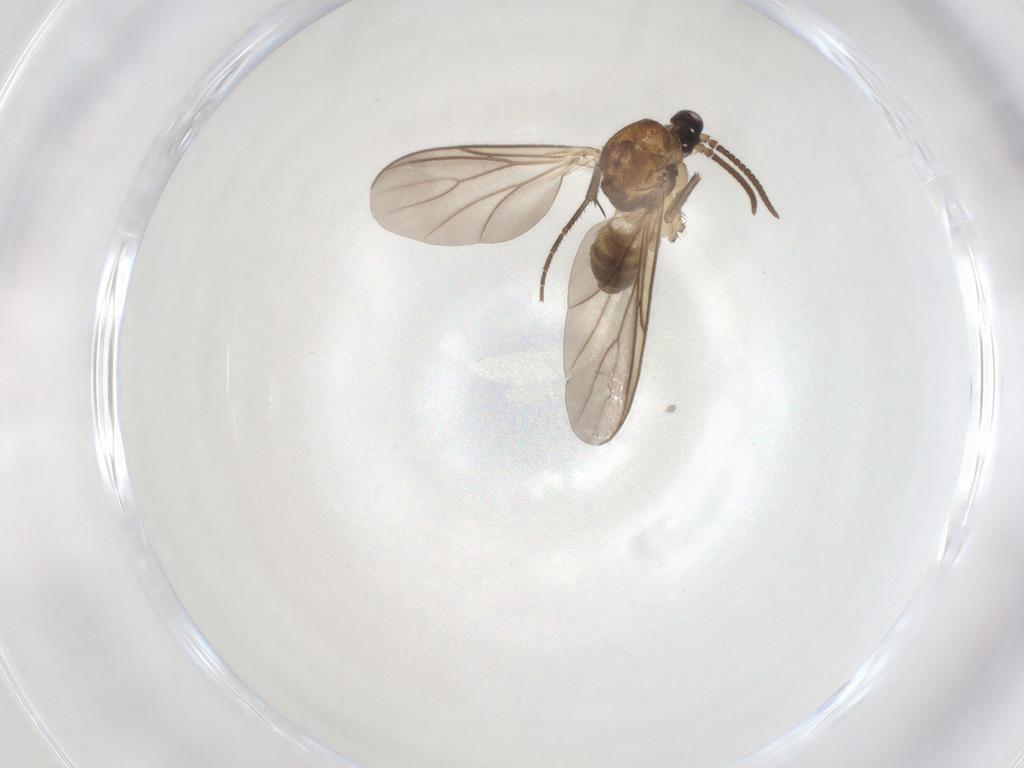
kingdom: Animalia
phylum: Arthropoda
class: Insecta
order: Diptera
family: Mycetophilidae
